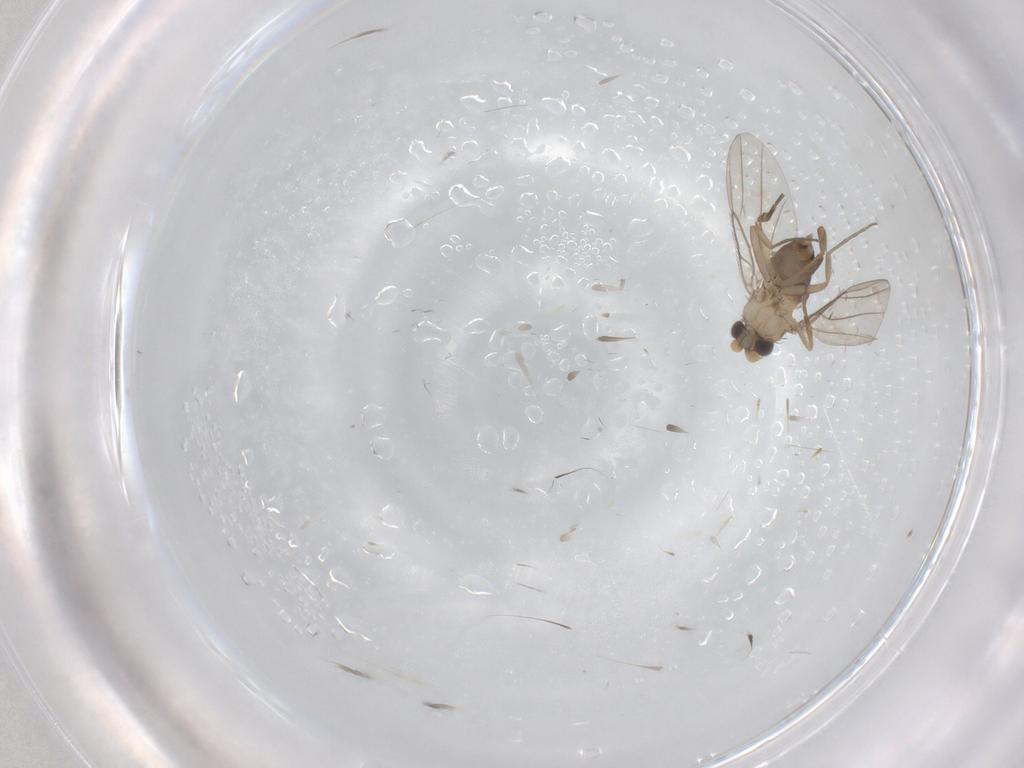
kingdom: Animalia
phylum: Arthropoda
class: Insecta
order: Diptera
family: Phoridae
